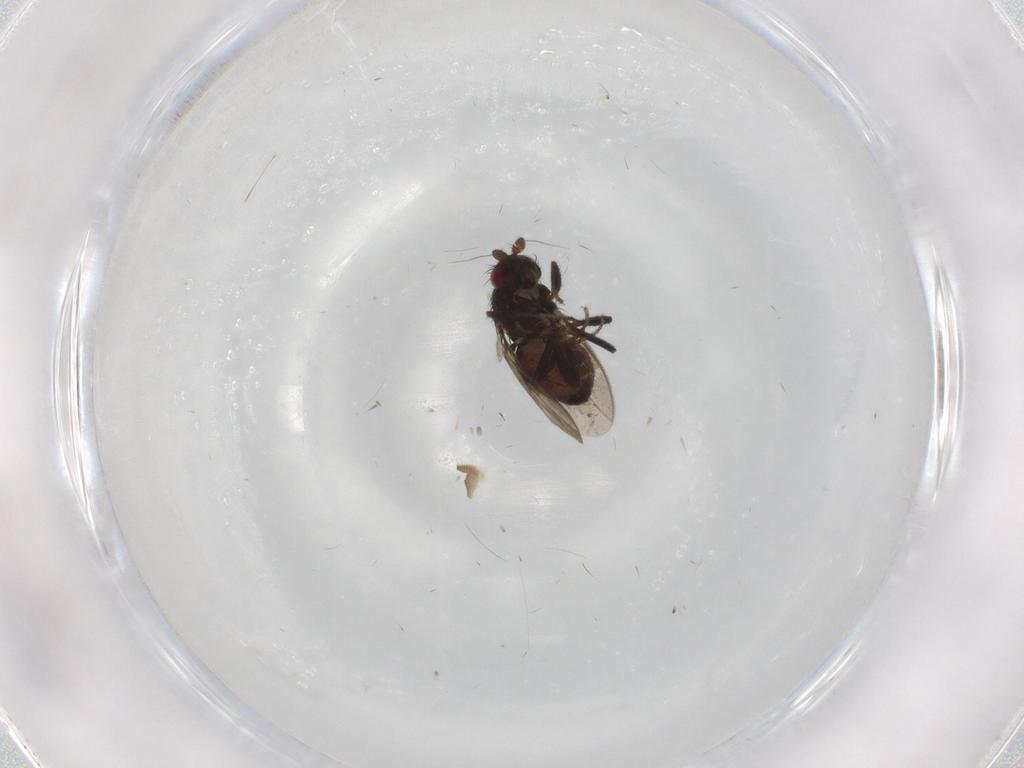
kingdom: Animalia
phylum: Arthropoda
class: Insecta
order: Diptera
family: Sphaeroceridae
